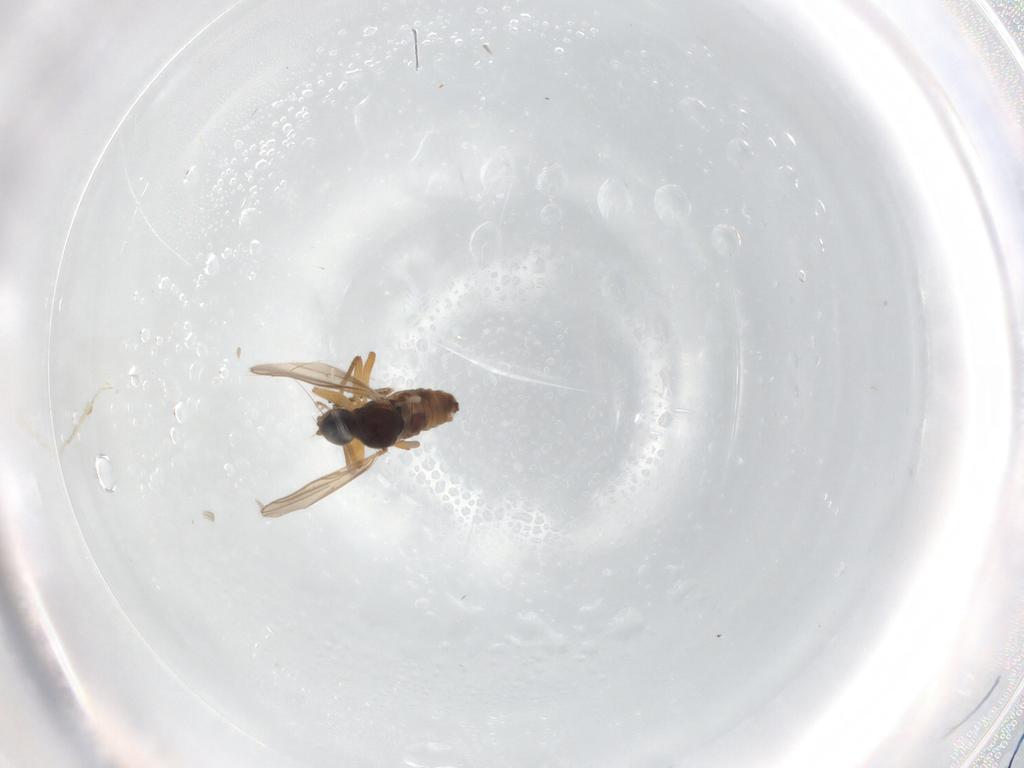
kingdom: Animalia
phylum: Arthropoda
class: Insecta
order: Diptera
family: Hybotidae
